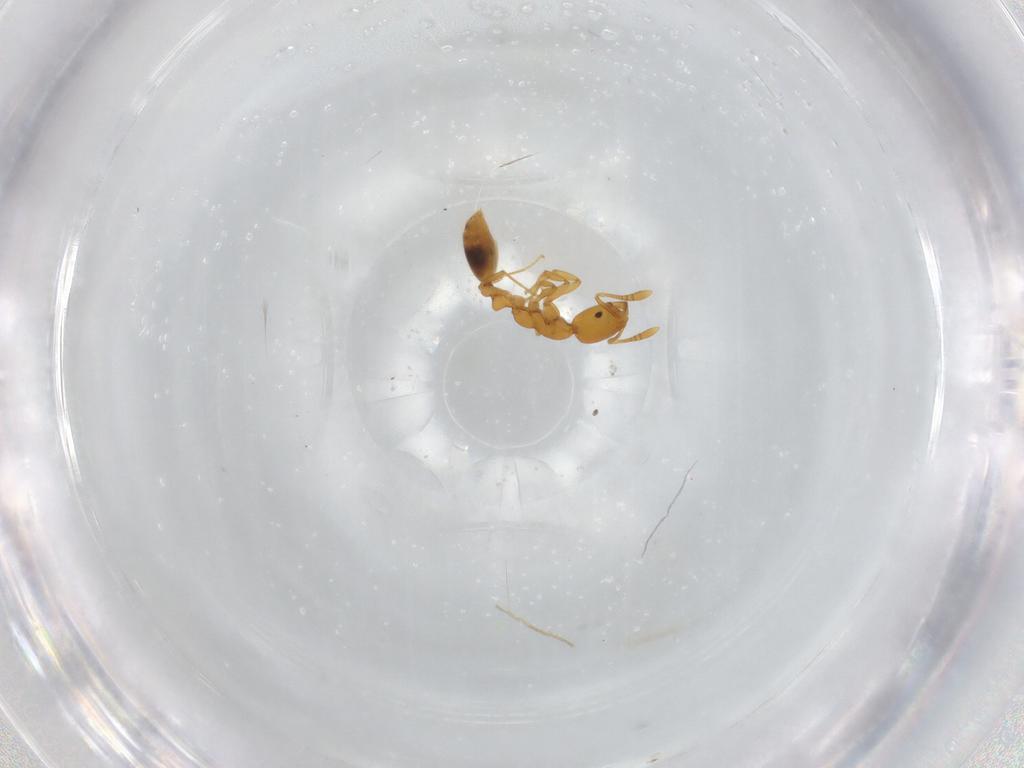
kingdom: Animalia
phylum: Arthropoda
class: Insecta
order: Hymenoptera
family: Formicidae
